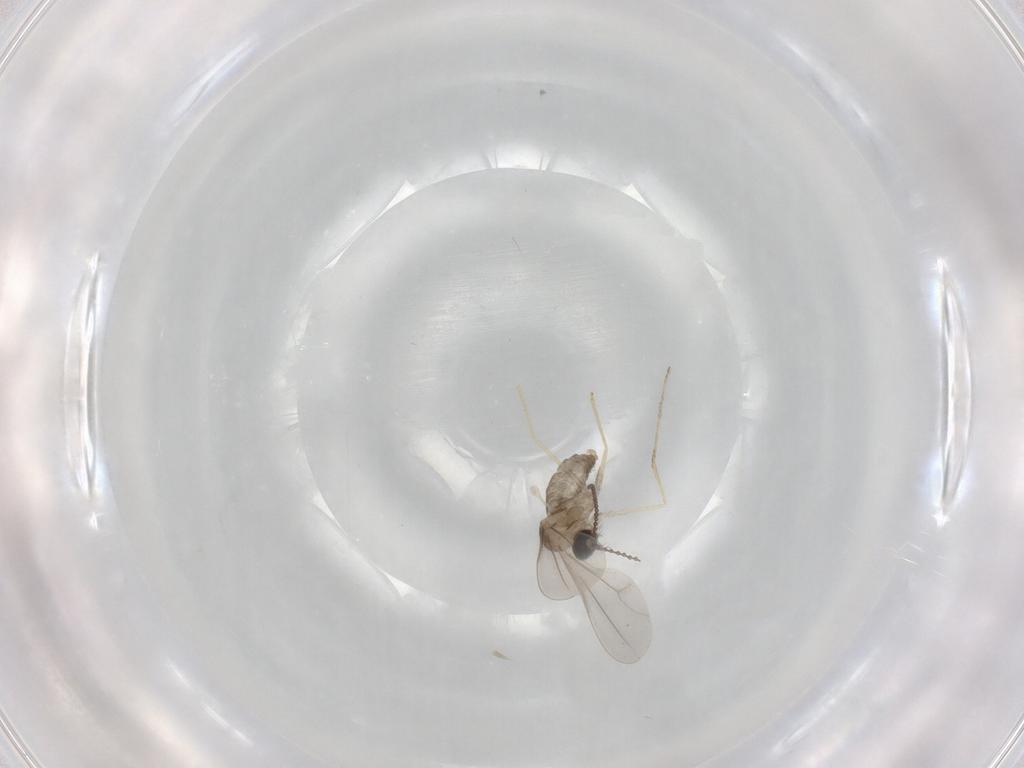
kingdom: Animalia
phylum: Arthropoda
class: Insecta
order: Diptera
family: Cecidomyiidae
